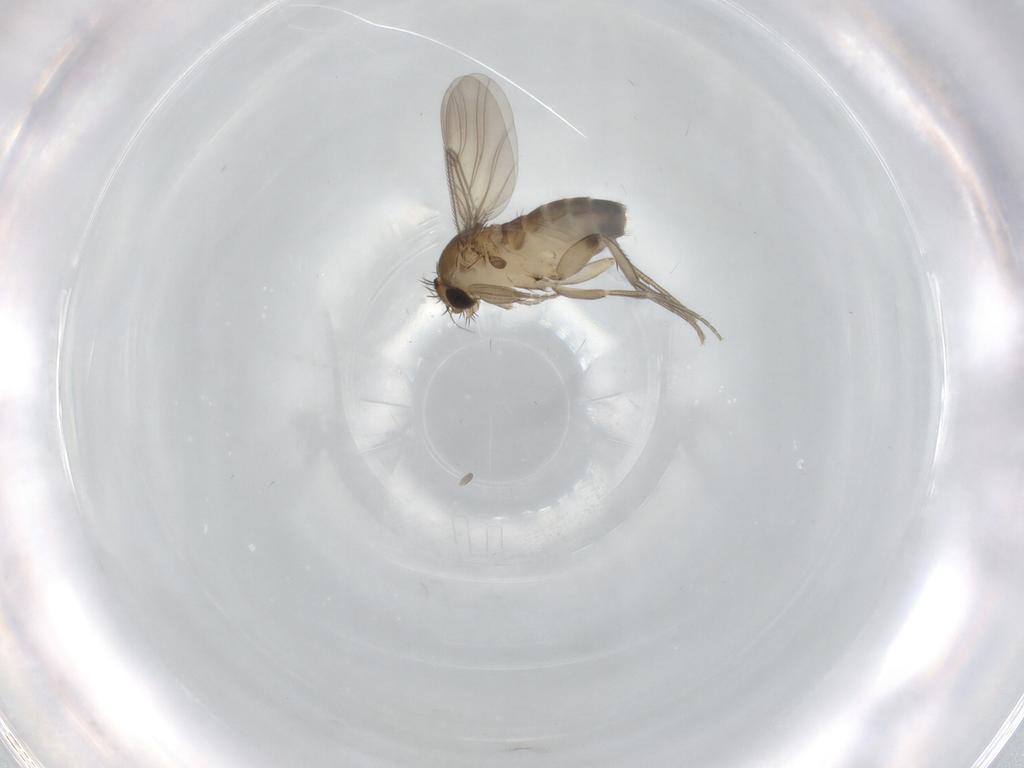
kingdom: Animalia
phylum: Arthropoda
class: Insecta
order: Diptera
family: Phoridae
